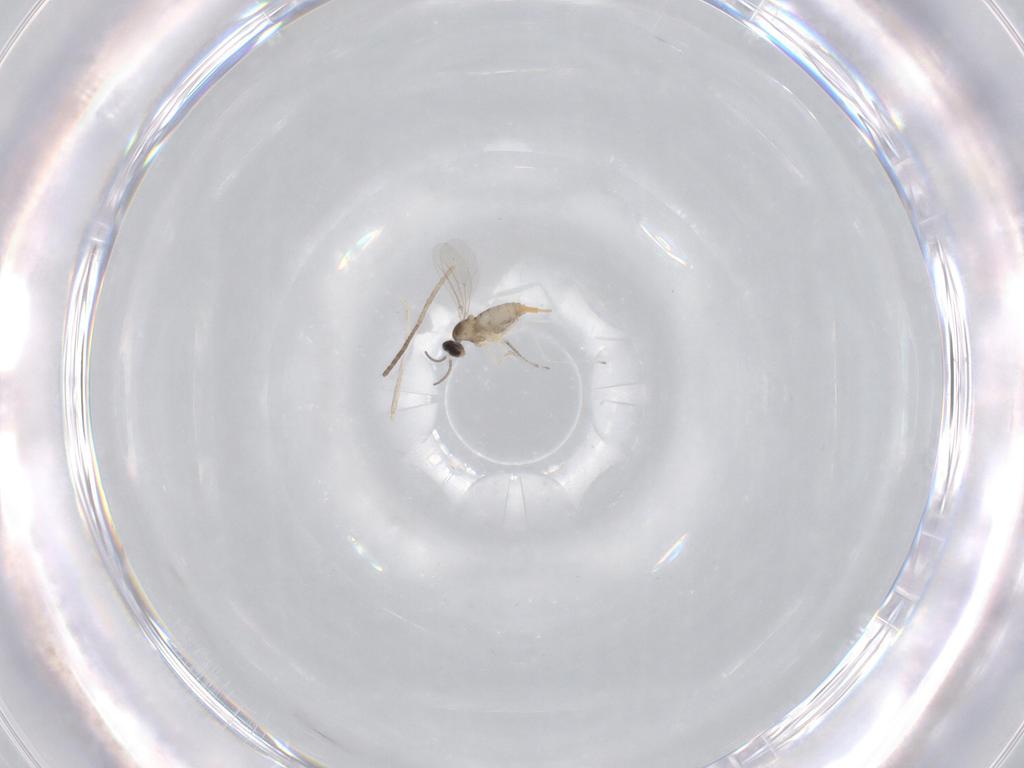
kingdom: Animalia
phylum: Arthropoda
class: Insecta
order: Diptera
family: Cecidomyiidae
